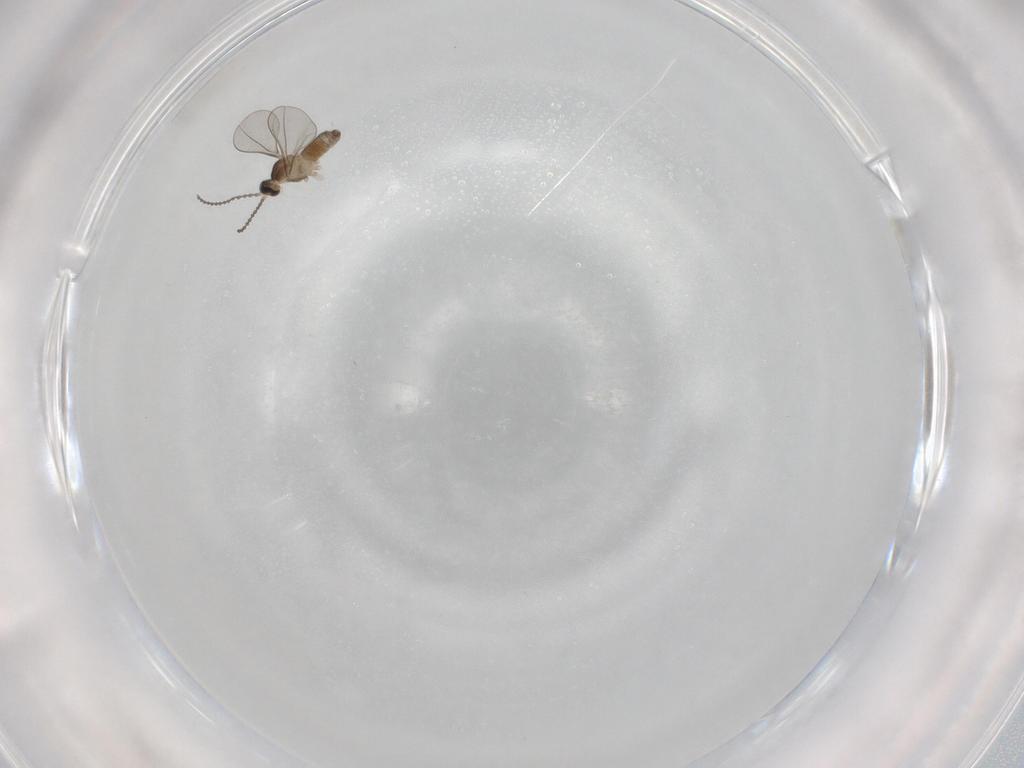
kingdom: Animalia
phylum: Arthropoda
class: Insecta
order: Diptera
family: Cecidomyiidae
